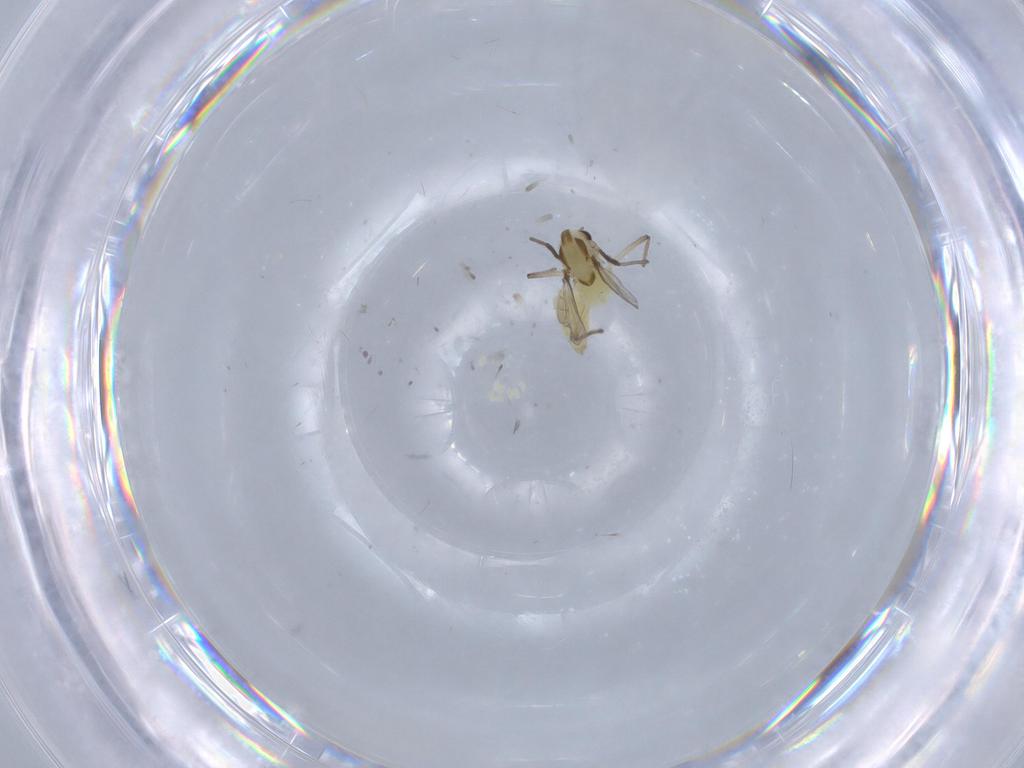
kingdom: Animalia
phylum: Arthropoda
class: Insecta
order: Diptera
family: Chironomidae
